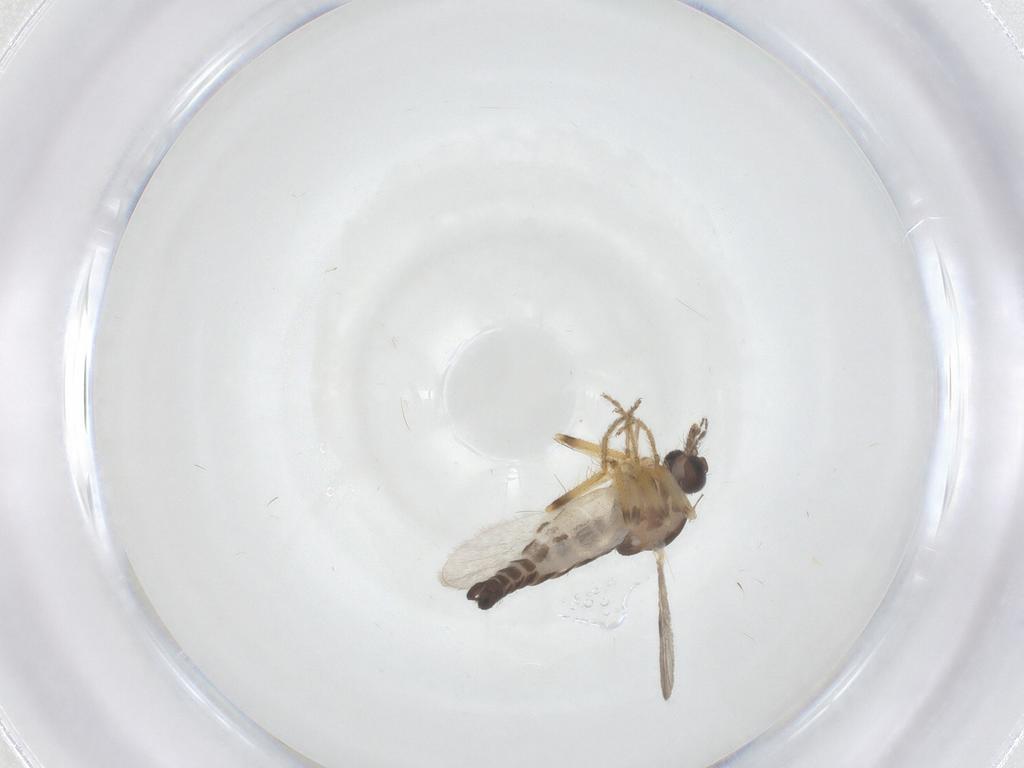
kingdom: Animalia
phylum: Arthropoda
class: Insecta
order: Diptera
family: Ceratopogonidae
